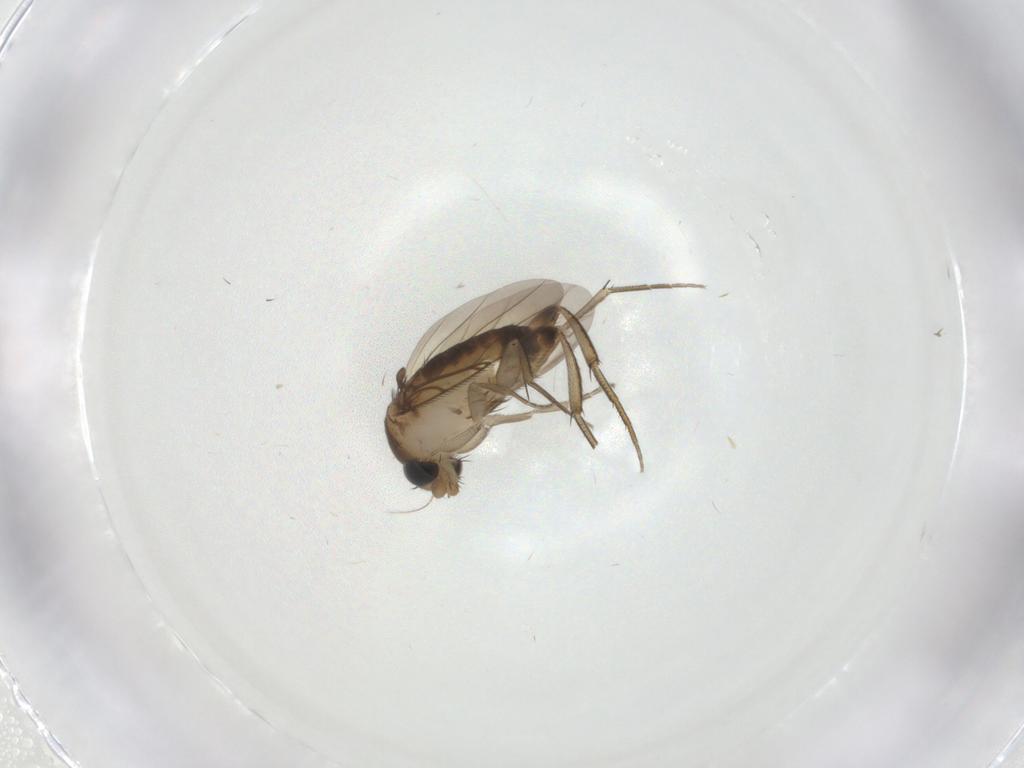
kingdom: Animalia
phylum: Arthropoda
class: Insecta
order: Diptera
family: Phoridae
